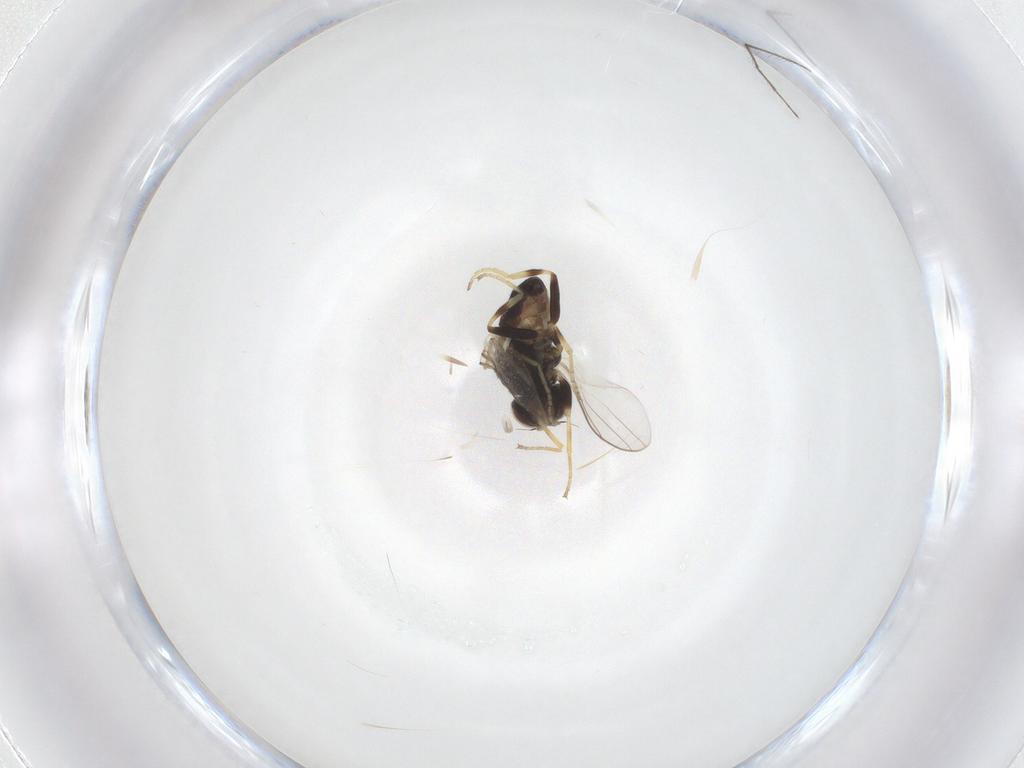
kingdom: Animalia
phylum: Arthropoda
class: Insecta
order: Diptera
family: Chloropidae
